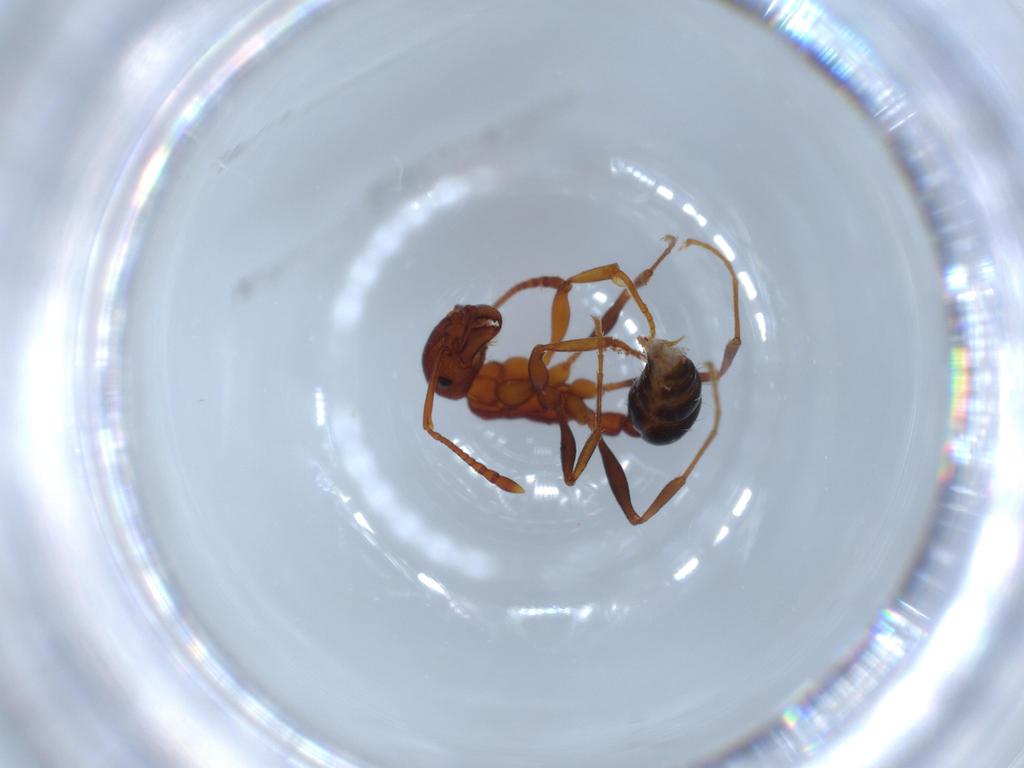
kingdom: Animalia
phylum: Arthropoda
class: Insecta
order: Hymenoptera
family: Formicidae
